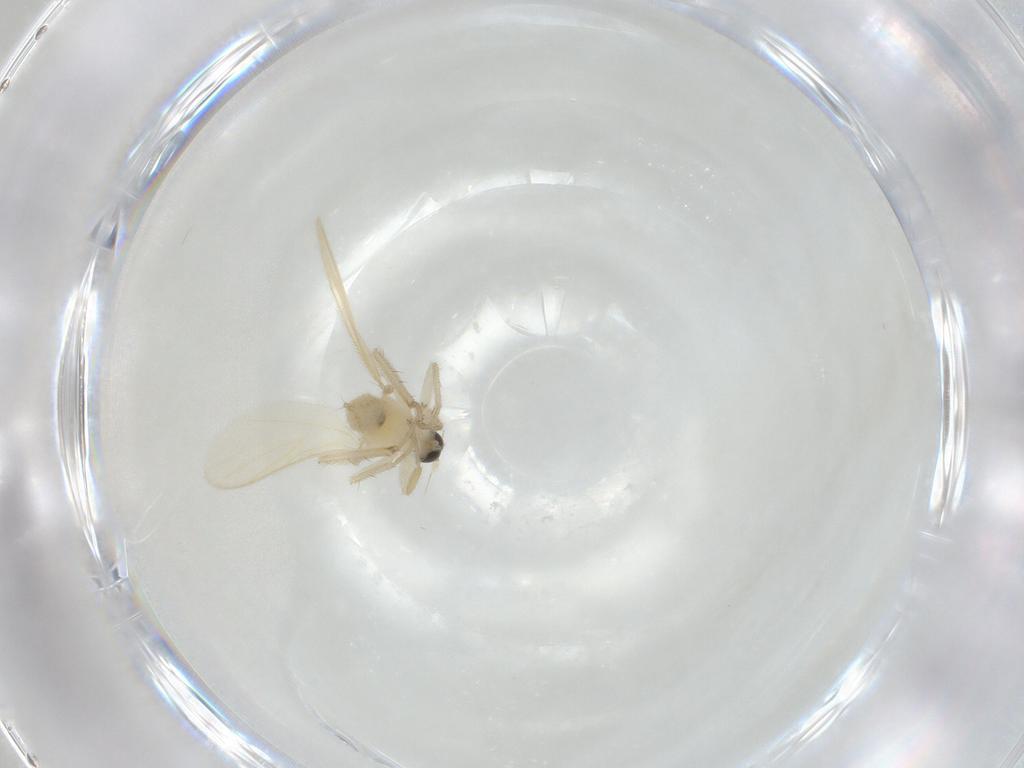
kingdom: Animalia
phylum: Arthropoda
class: Insecta
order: Diptera
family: Hybotidae
